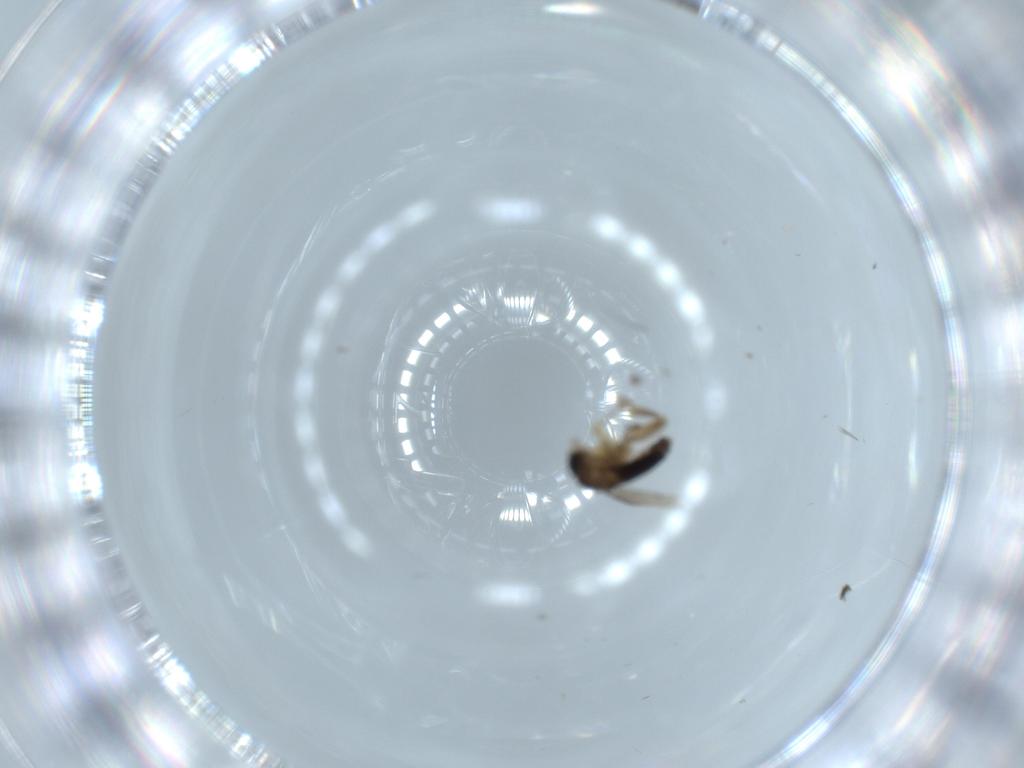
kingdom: Animalia
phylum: Arthropoda
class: Insecta
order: Diptera
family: Phoridae
